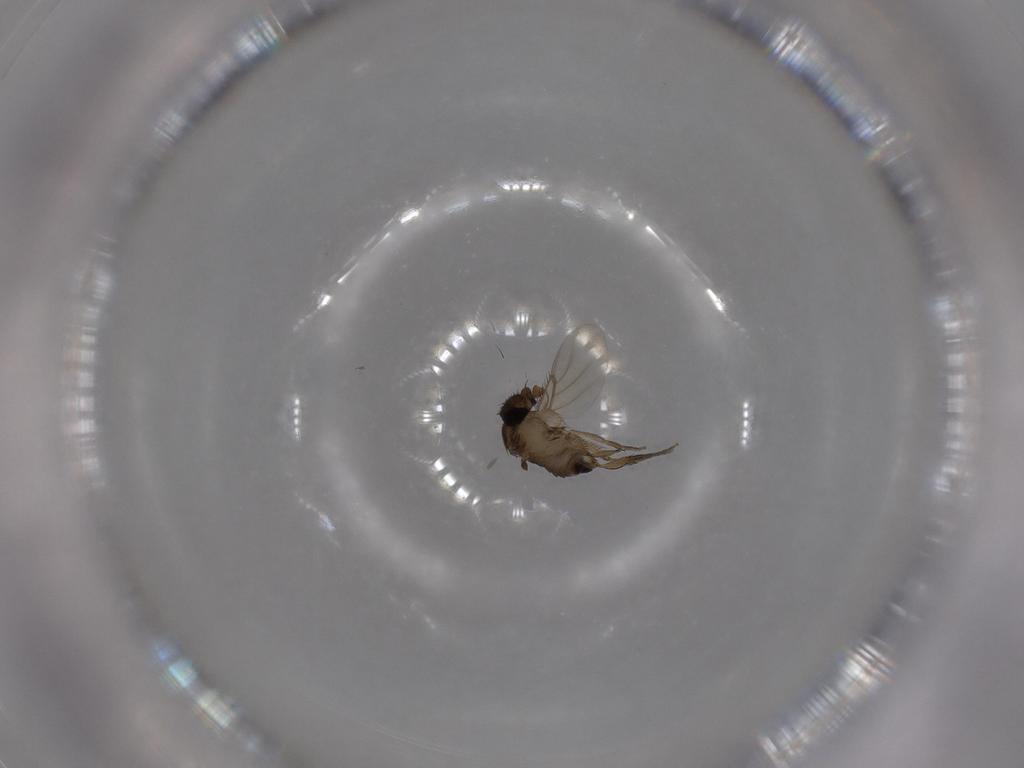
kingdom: Animalia
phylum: Arthropoda
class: Insecta
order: Diptera
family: Phoridae
